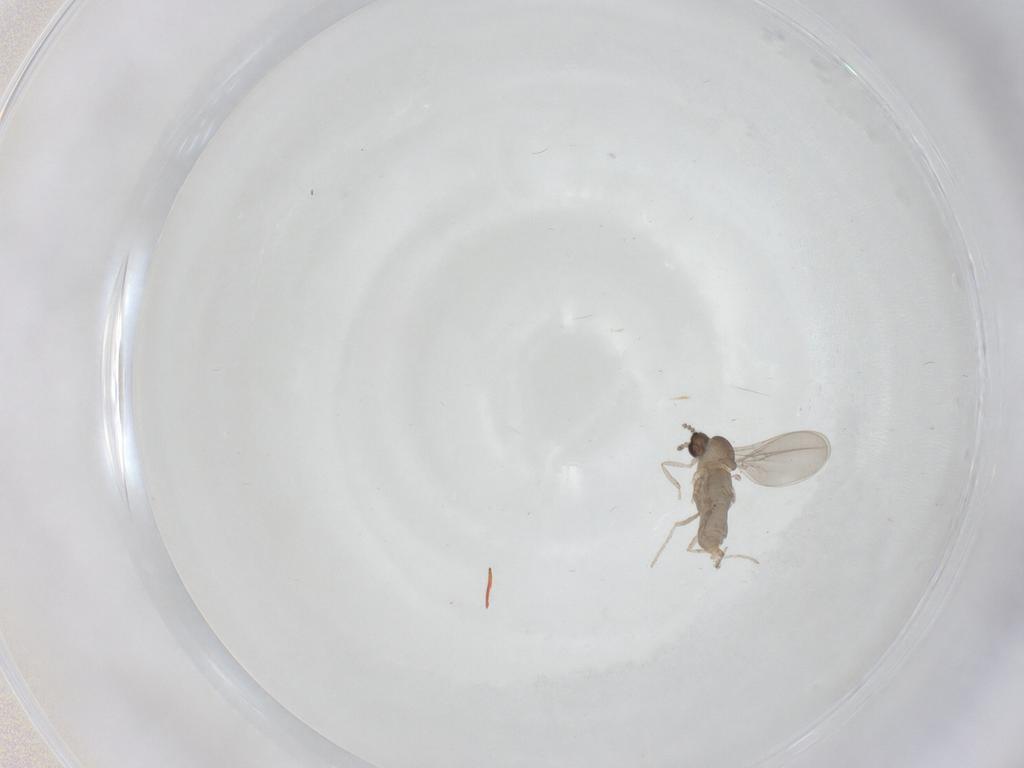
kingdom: Animalia
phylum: Arthropoda
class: Insecta
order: Diptera
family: Cecidomyiidae
